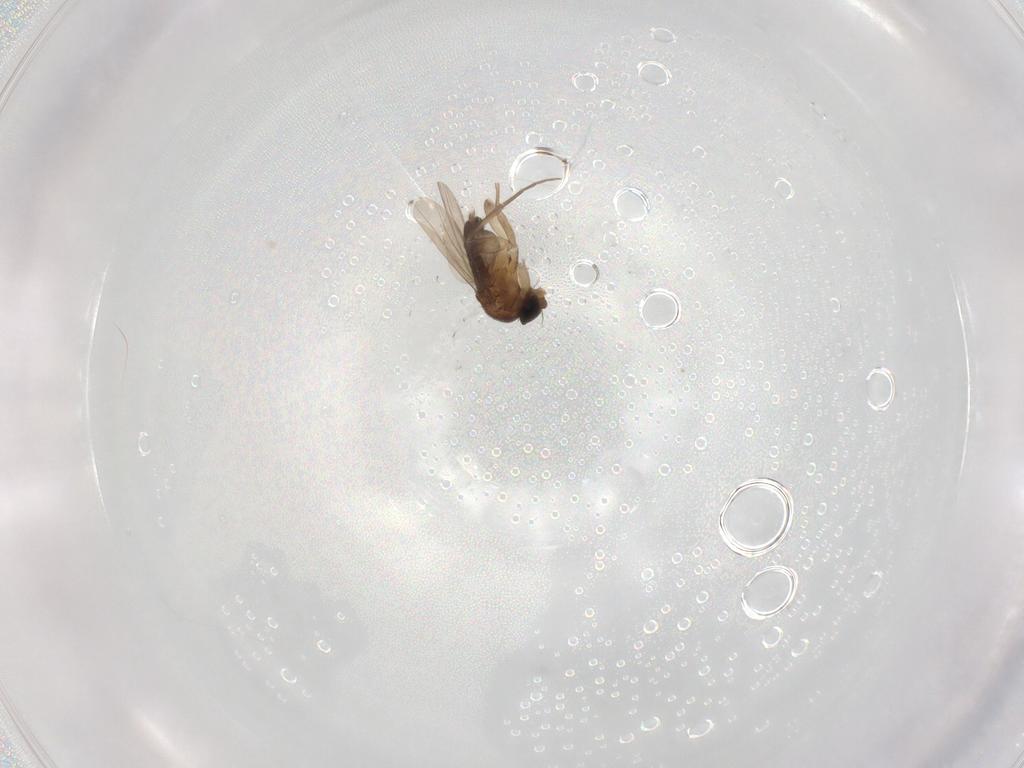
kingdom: Animalia
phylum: Arthropoda
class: Insecta
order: Diptera
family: Phoridae
